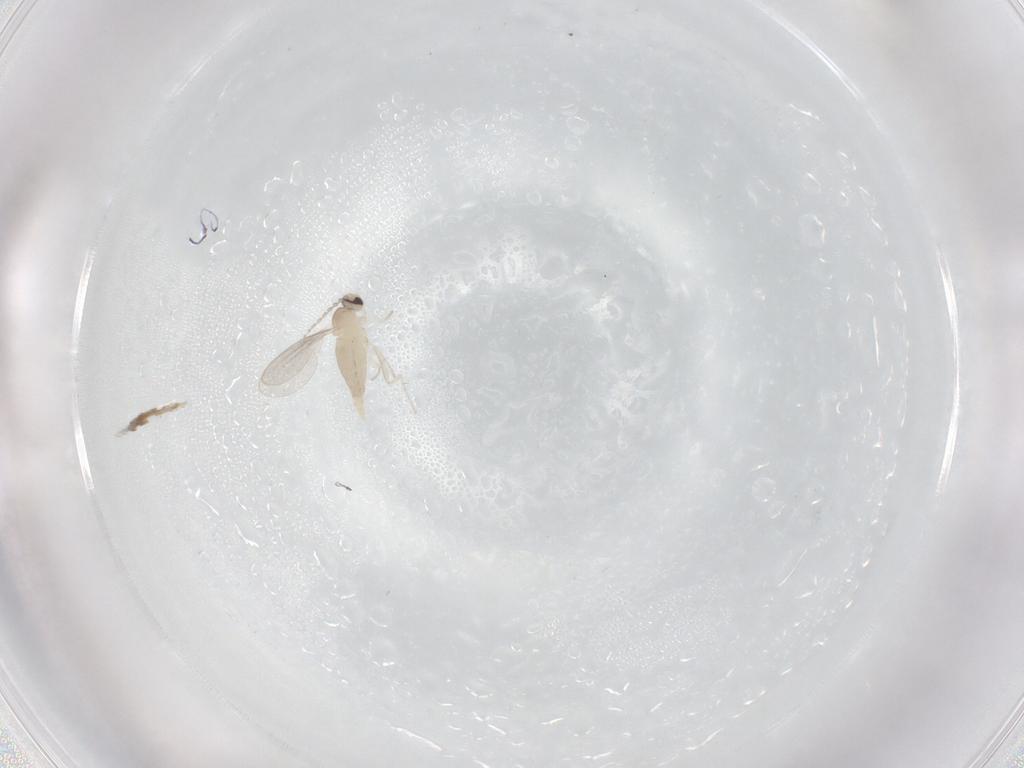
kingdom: Animalia
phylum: Arthropoda
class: Insecta
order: Diptera
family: Cecidomyiidae
